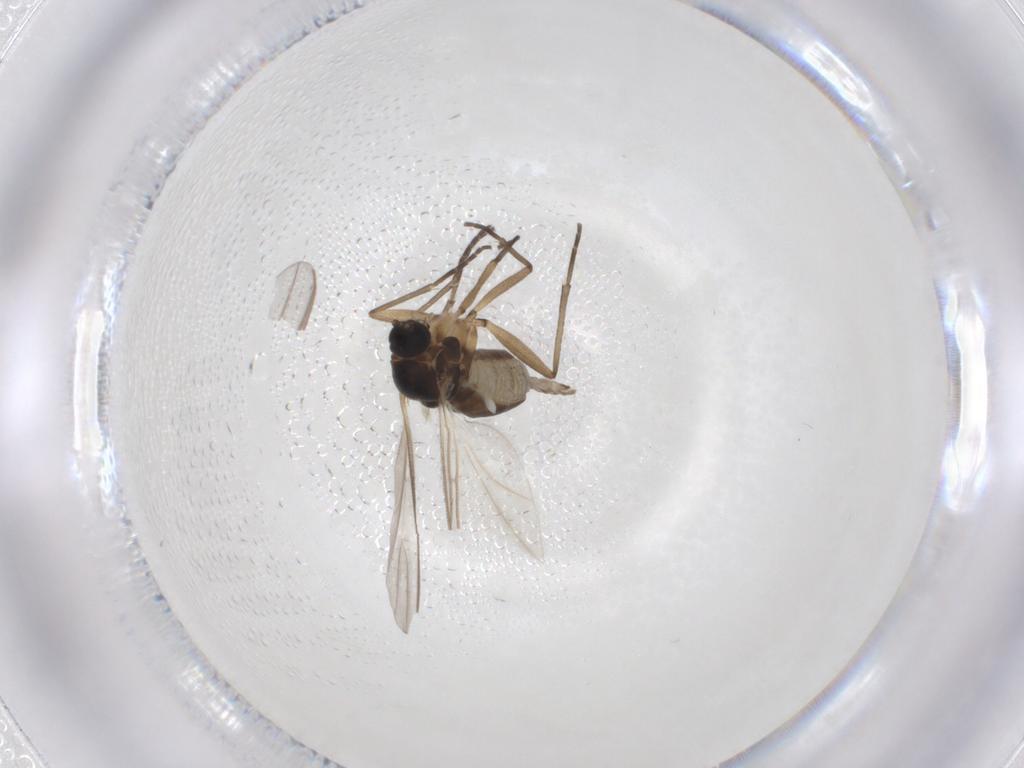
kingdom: Animalia
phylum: Arthropoda
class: Insecta
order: Diptera
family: Chironomidae
